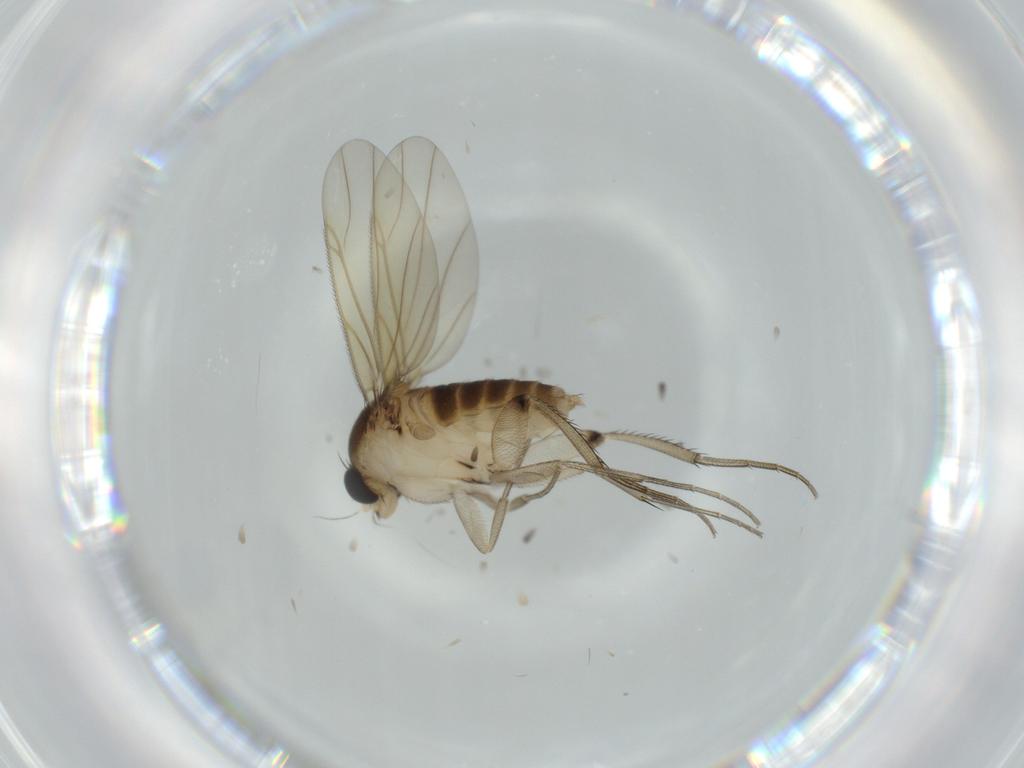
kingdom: Animalia
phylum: Arthropoda
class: Insecta
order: Diptera
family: Milichiidae
